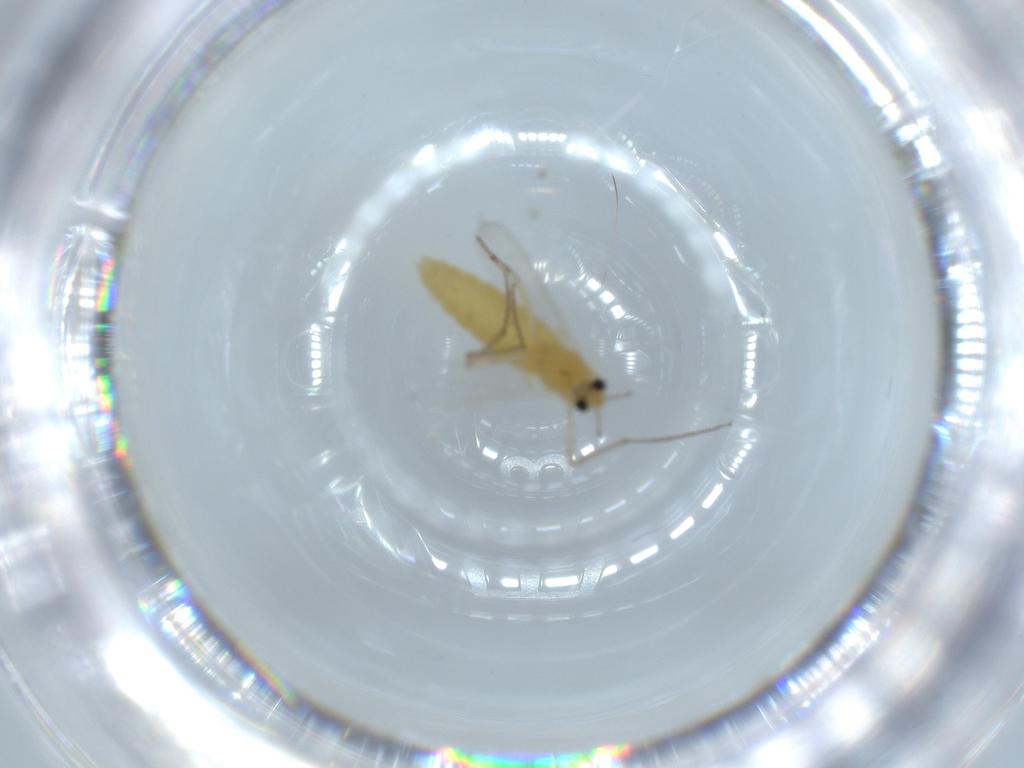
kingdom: Animalia
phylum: Arthropoda
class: Insecta
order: Diptera
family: Chironomidae
